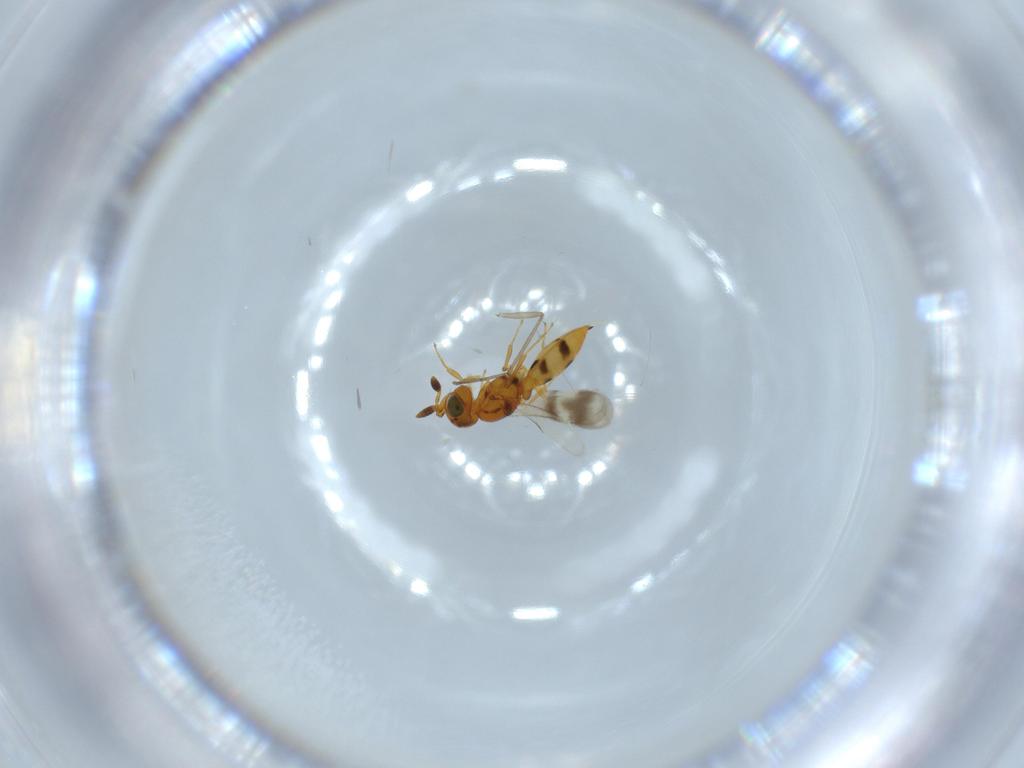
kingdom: Animalia
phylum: Arthropoda
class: Insecta
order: Hymenoptera
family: Scelionidae
